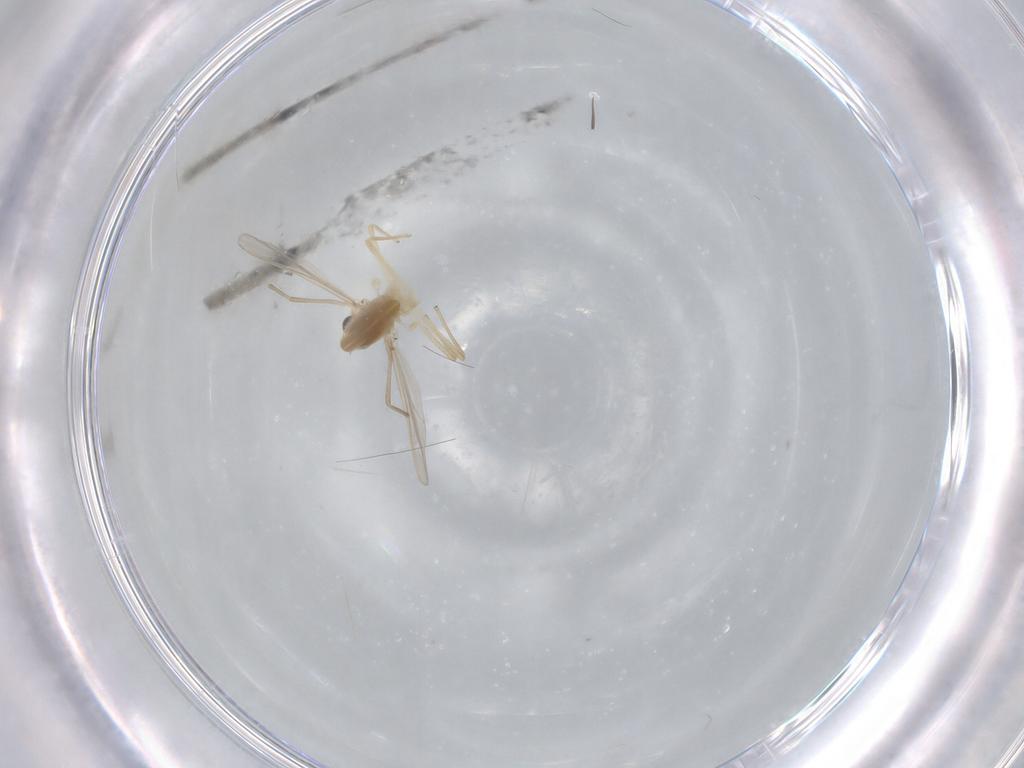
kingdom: Animalia
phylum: Arthropoda
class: Insecta
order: Diptera
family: Chironomidae
